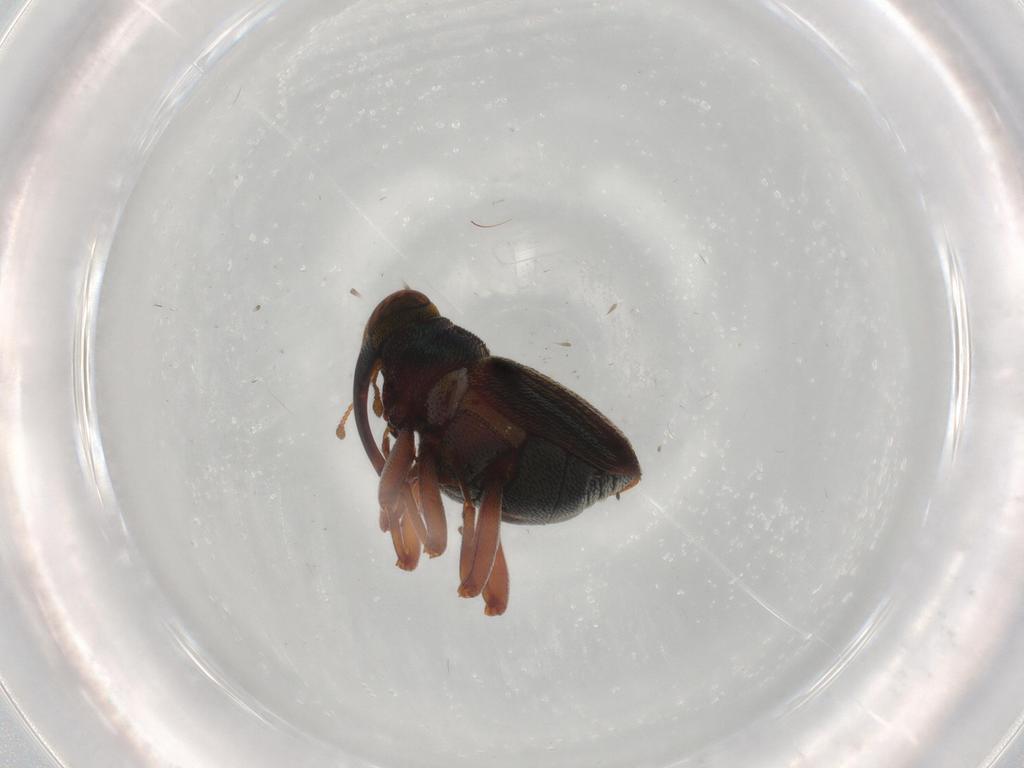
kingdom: Animalia
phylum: Arthropoda
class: Insecta
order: Coleoptera
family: Curculionidae
